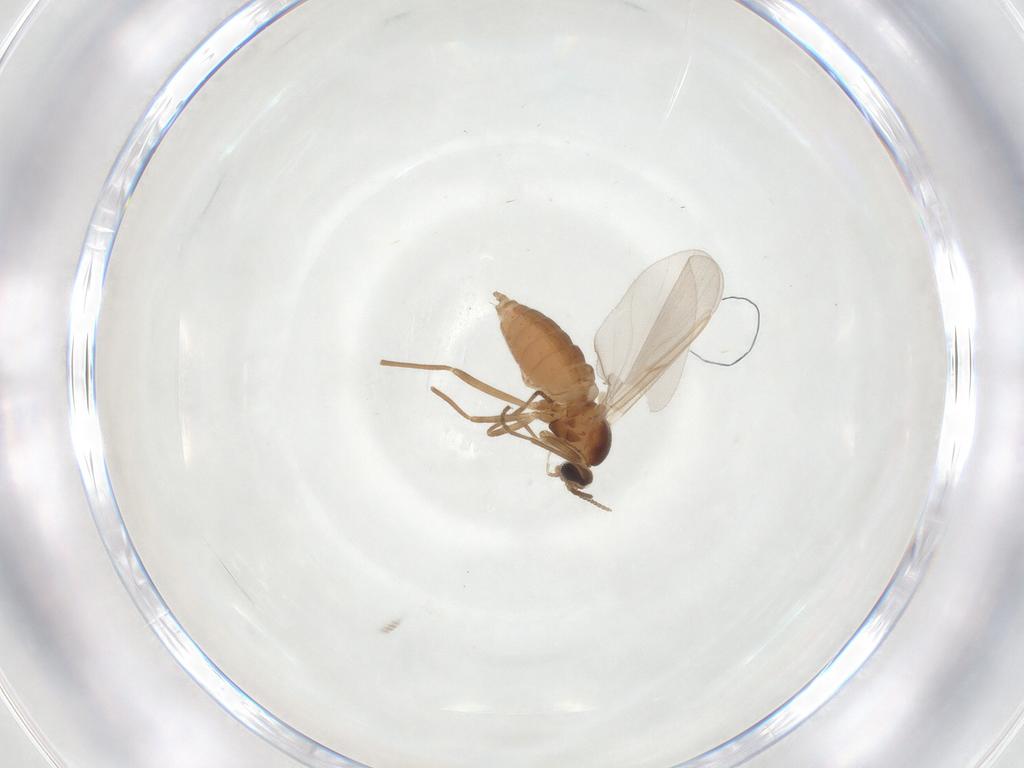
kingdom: Animalia
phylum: Arthropoda
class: Insecta
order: Diptera
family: Cecidomyiidae
